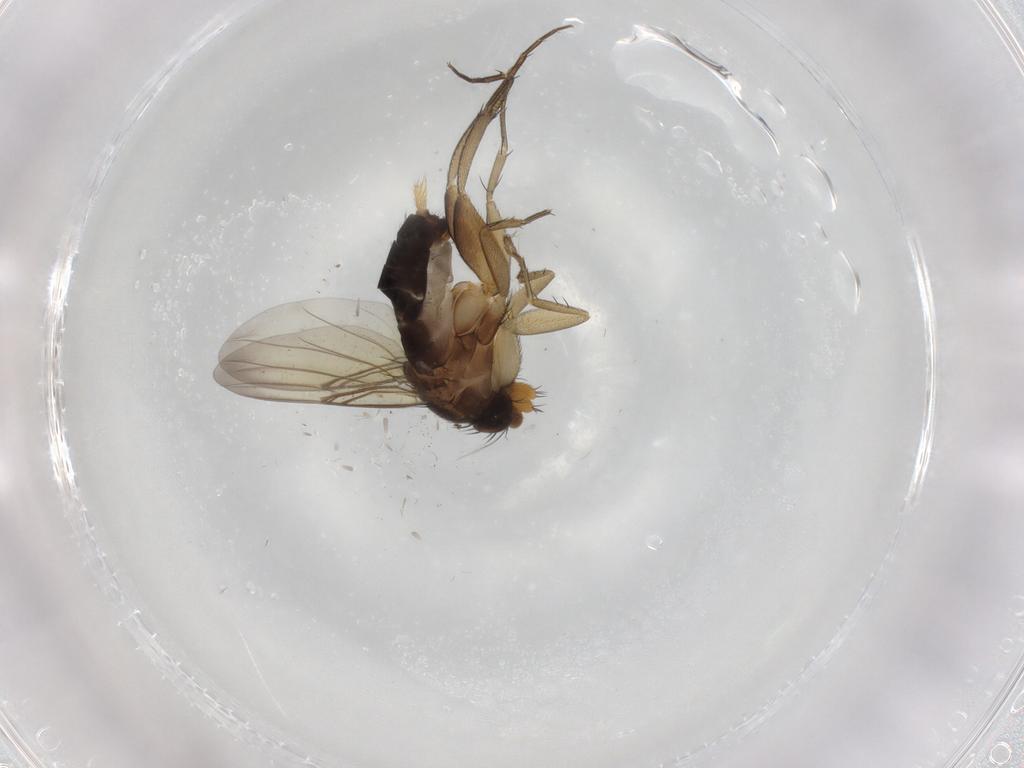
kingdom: Animalia
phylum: Arthropoda
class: Insecta
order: Diptera
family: Phoridae
